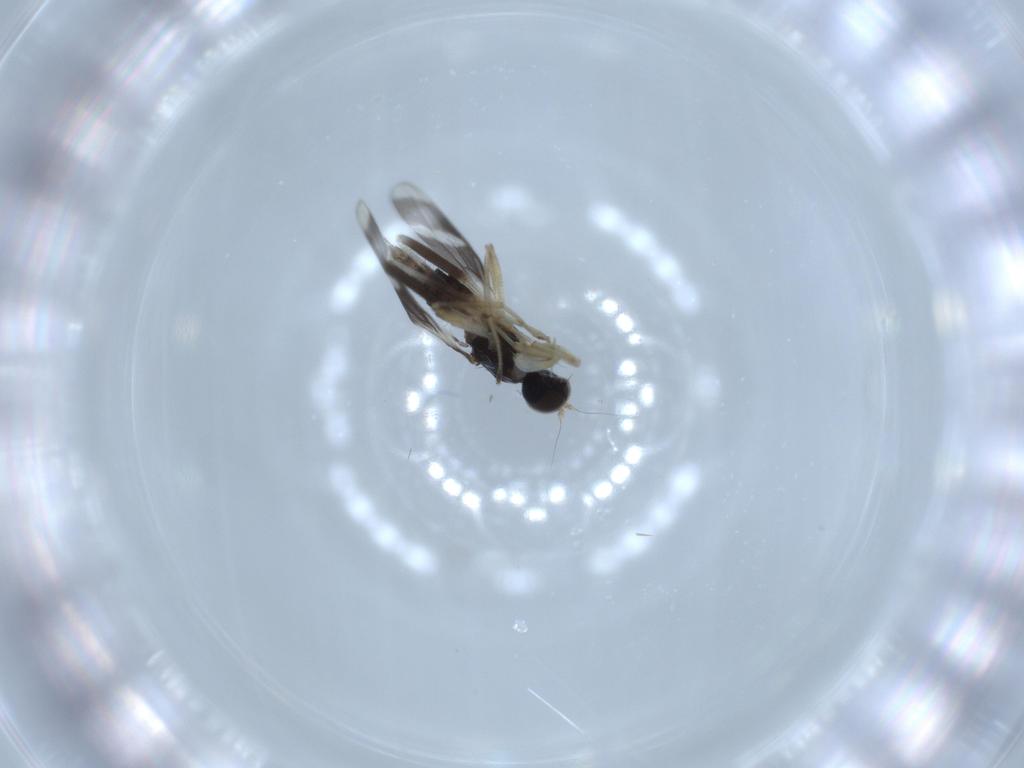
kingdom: Animalia
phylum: Arthropoda
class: Insecta
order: Diptera
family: Hybotidae
